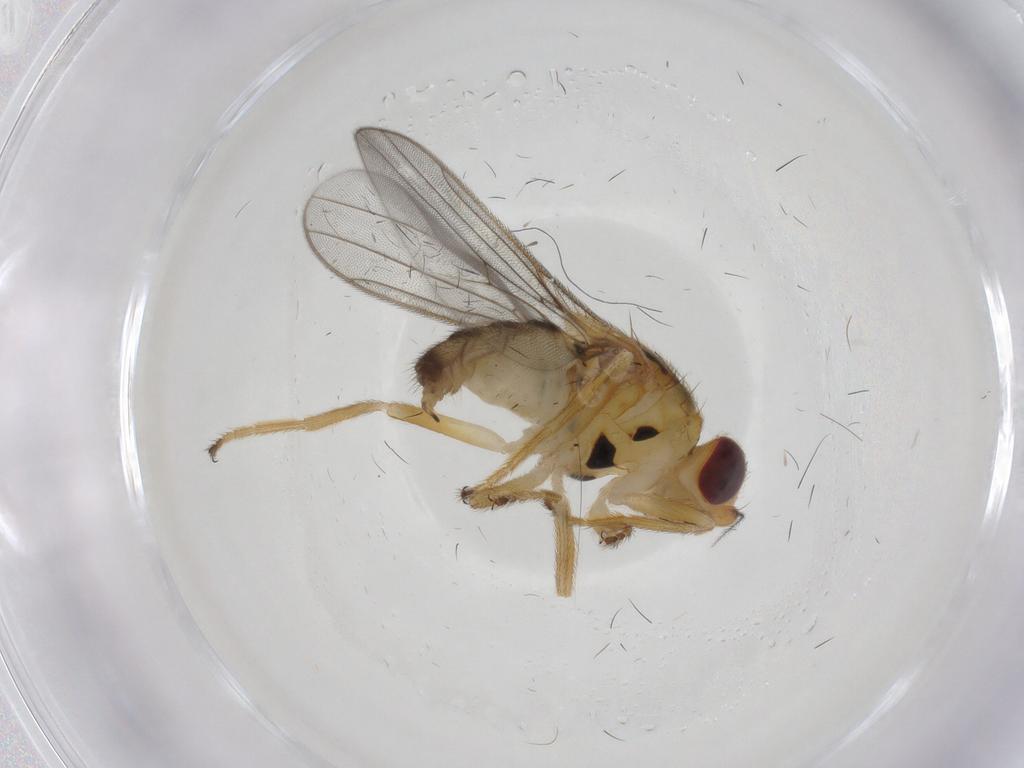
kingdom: Animalia
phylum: Arthropoda
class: Insecta
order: Diptera
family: Chloropidae
